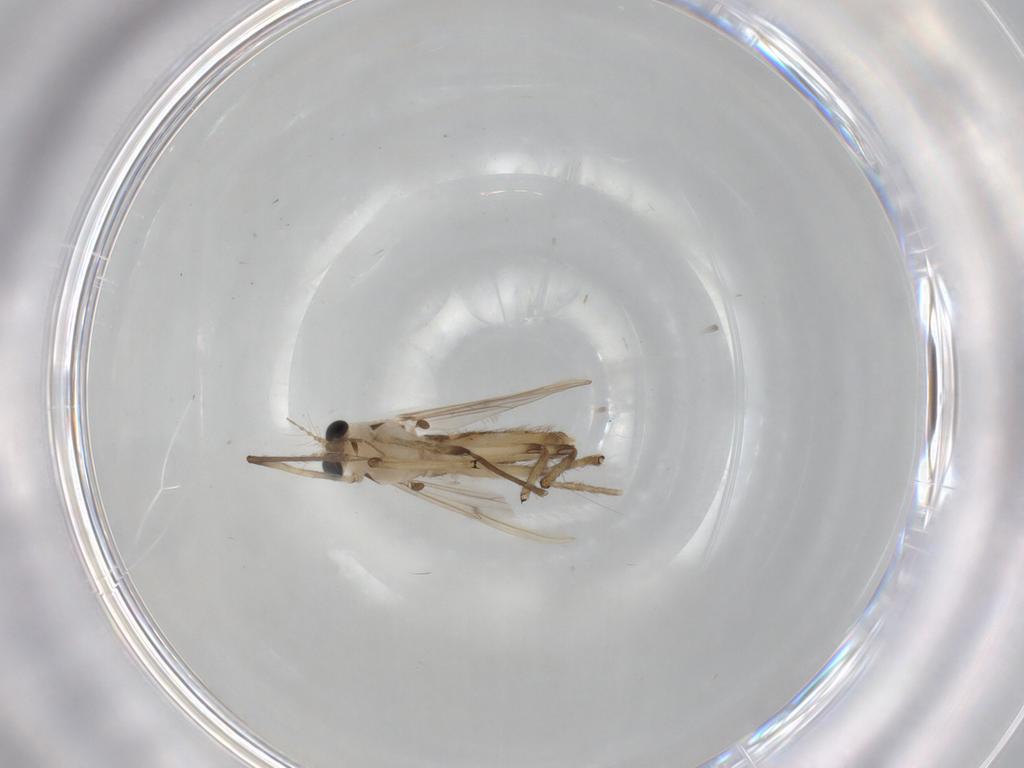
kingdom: Animalia
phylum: Arthropoda
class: Insecta
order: Diptera
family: Chironomidae
